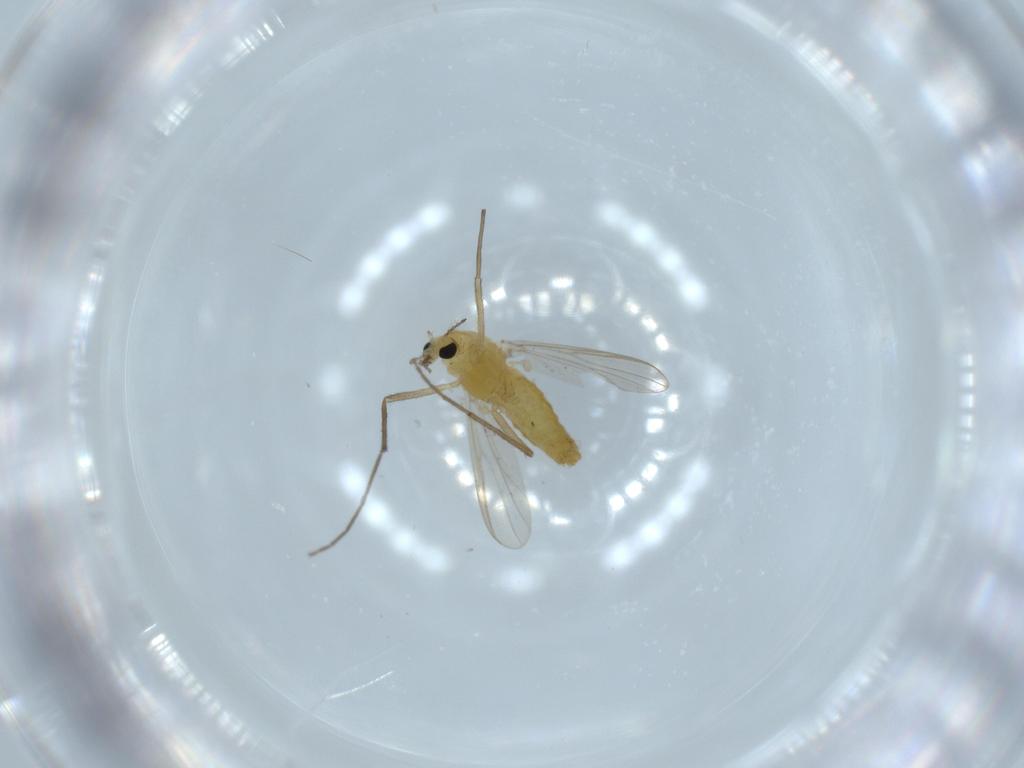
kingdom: Animalia
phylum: Arthropoda
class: Insecta
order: Diptera
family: Chironomidae
